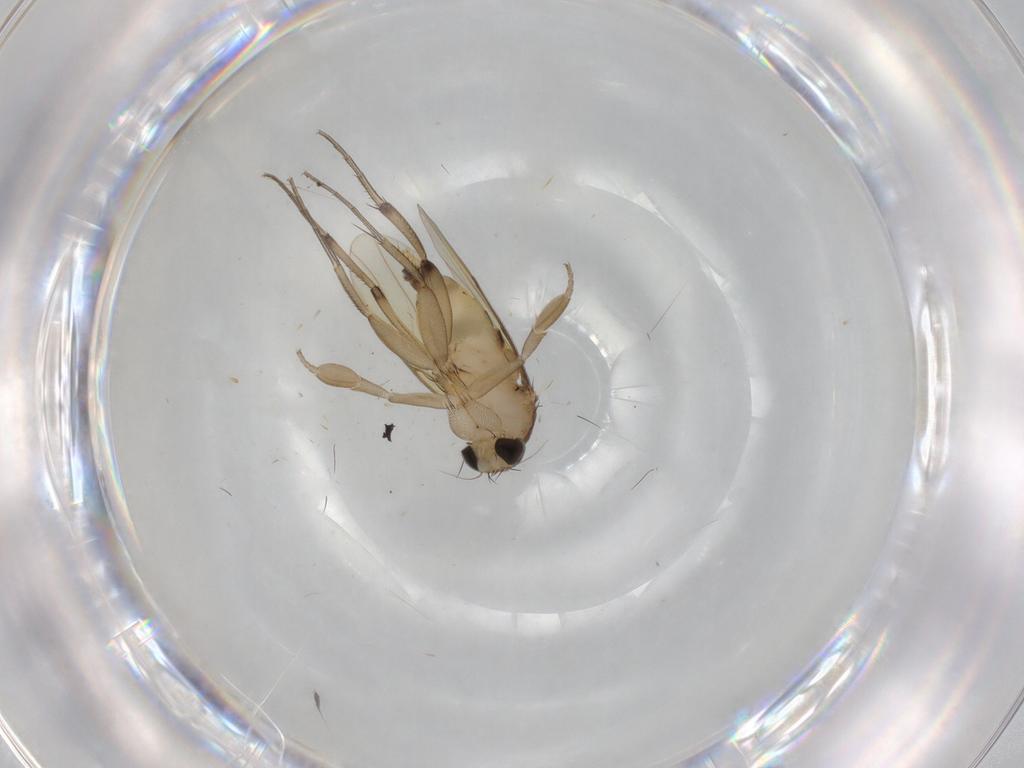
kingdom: Animalia
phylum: Arthropoda
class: Insecta
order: Diptera
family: Phoridae
